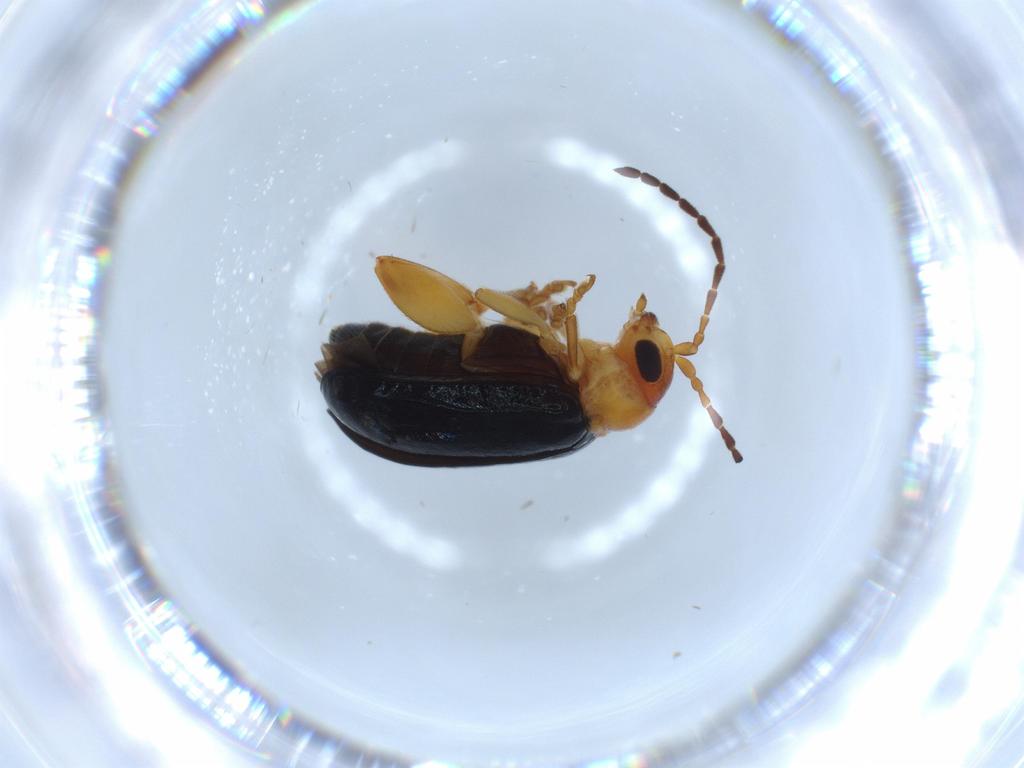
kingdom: Animalia
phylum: Arthropoda
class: Insecta
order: Coleoptera
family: Chrysomelidae
